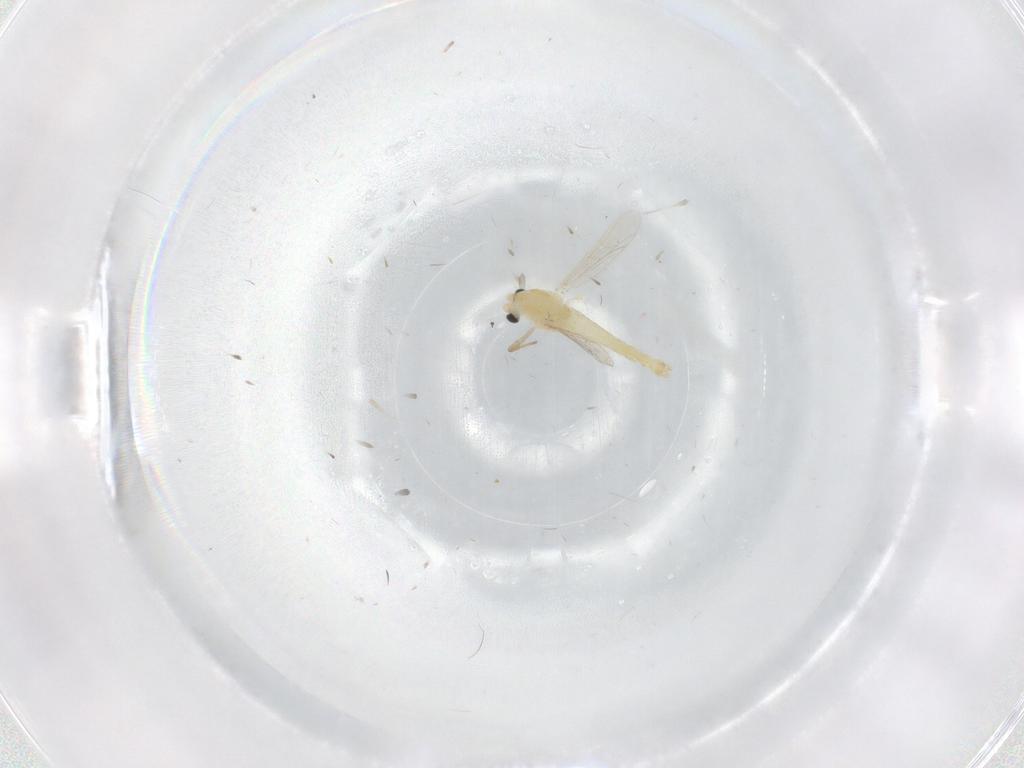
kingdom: Animalia
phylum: Arthropoda
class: Insecta
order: Diptera
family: Chironomidae
